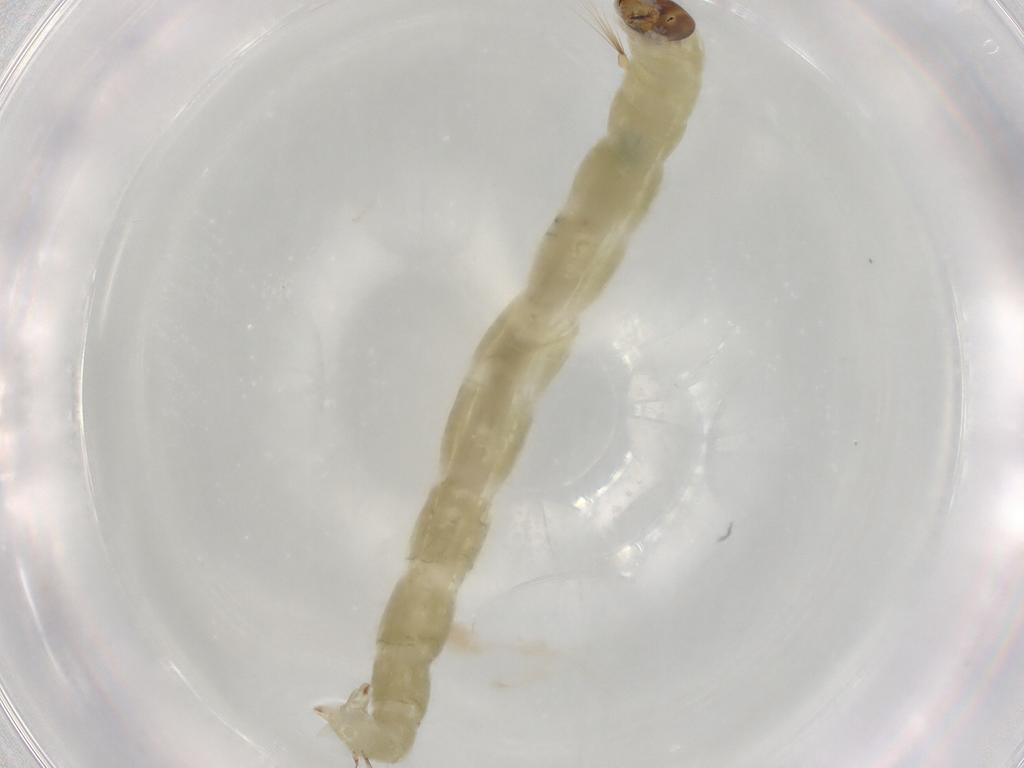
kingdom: Animalia
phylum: Arthropoda
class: Insecta
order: Diptera
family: Chironomidae
